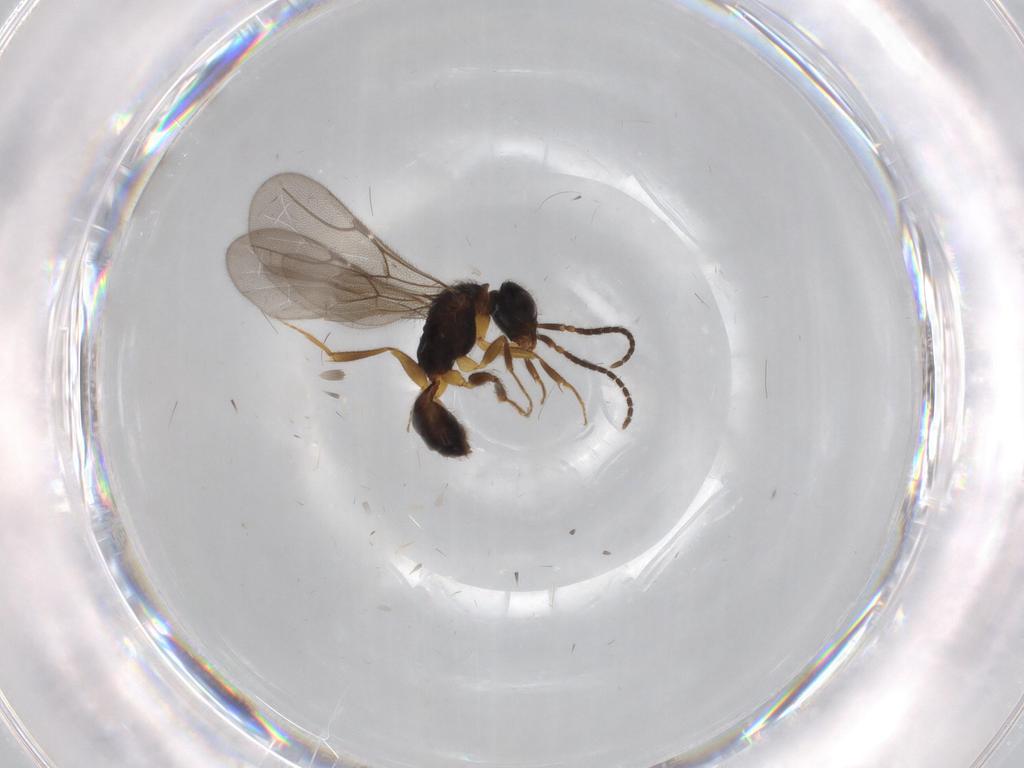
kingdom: Animalia
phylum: Arthropoda
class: Insecta
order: Hymenoptera
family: Bethylidae
